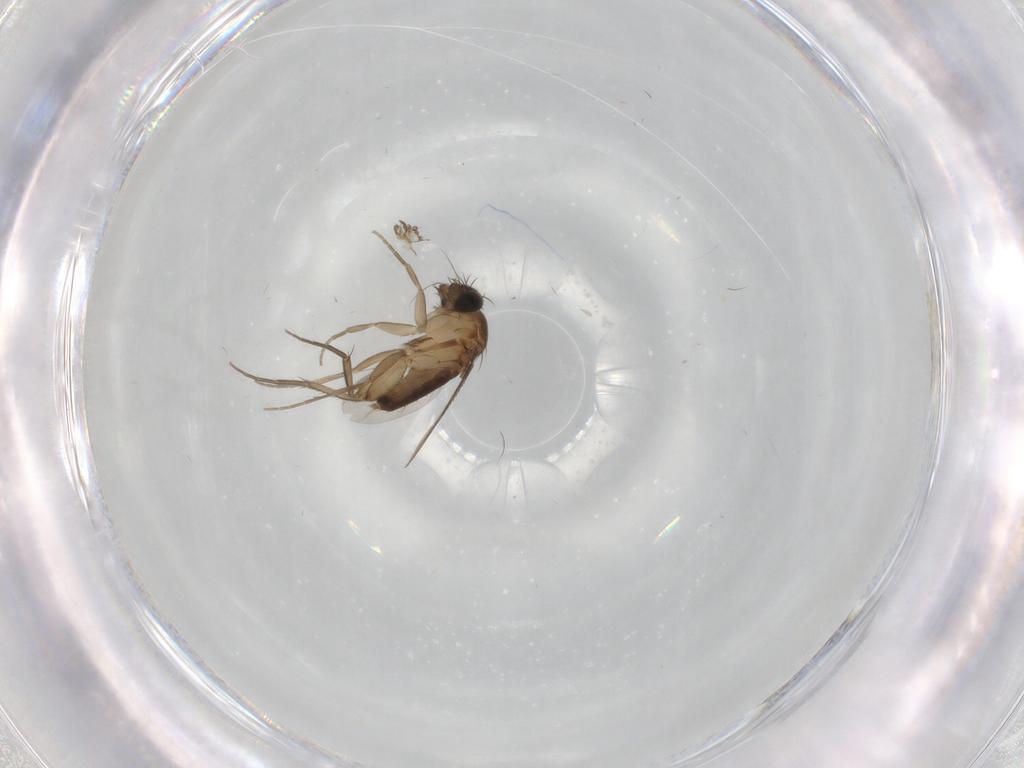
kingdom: Animalia
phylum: Arthropoda
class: Insecta
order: Diptera
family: Phoridae
